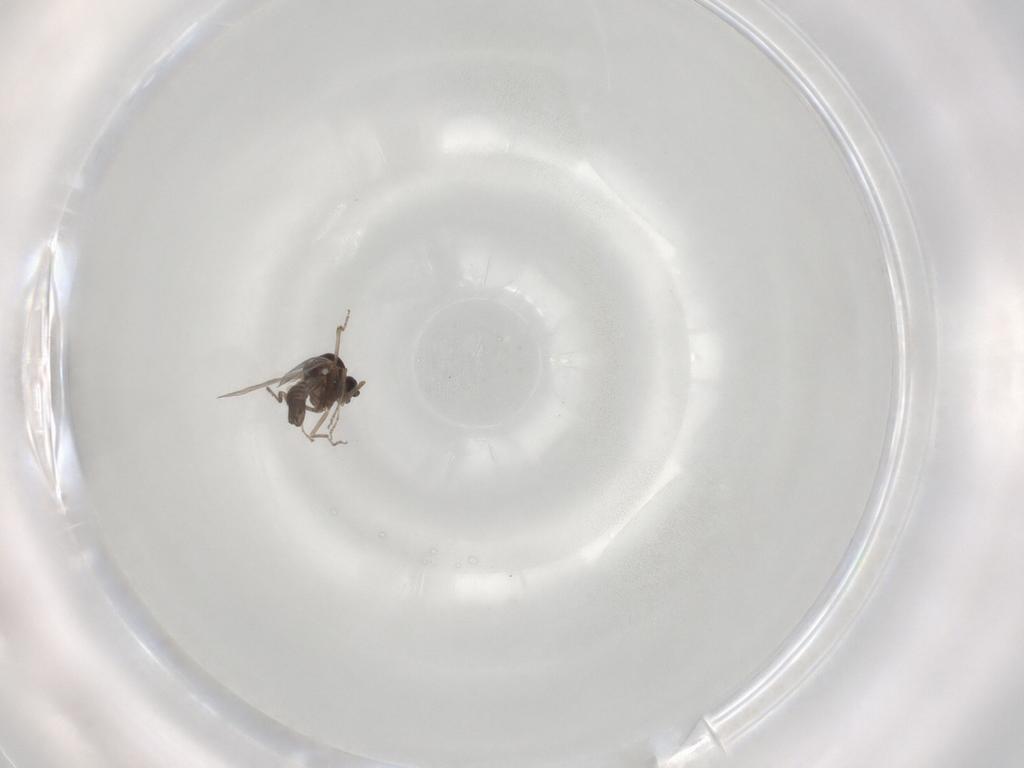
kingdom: Animalia
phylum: Arthropoda
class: Insecta
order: Diptera
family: Ceratopogonidae
